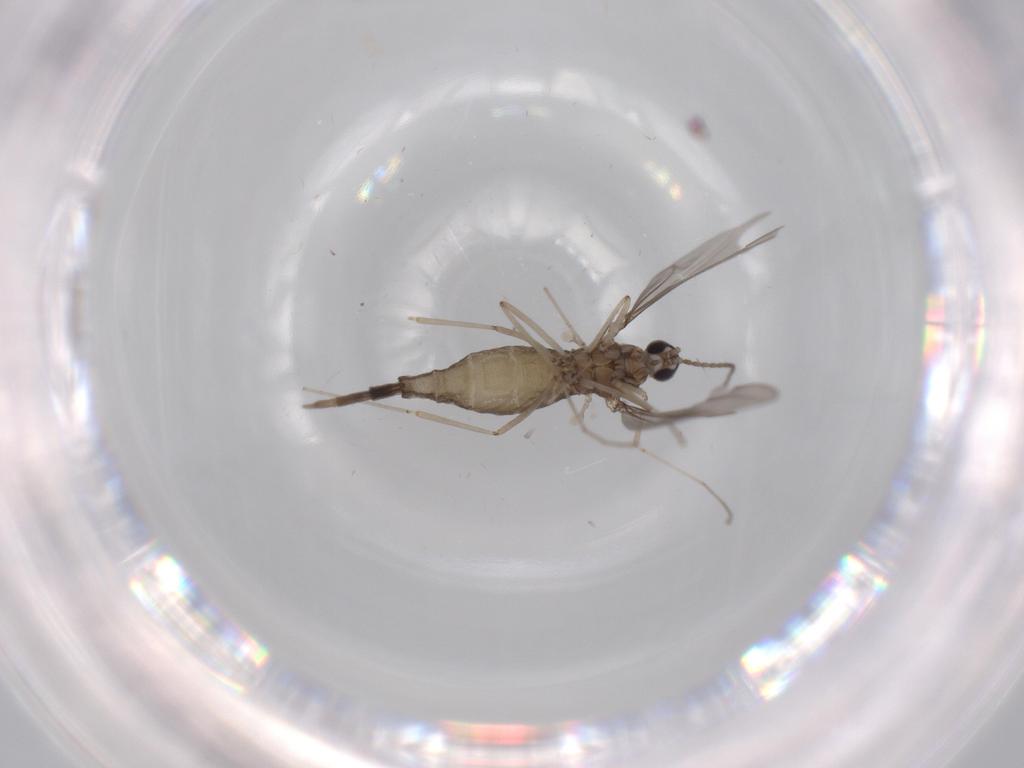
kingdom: Animalia
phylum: Arthropoda
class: Insecta
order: Diptera
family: Cecidomyiidae
